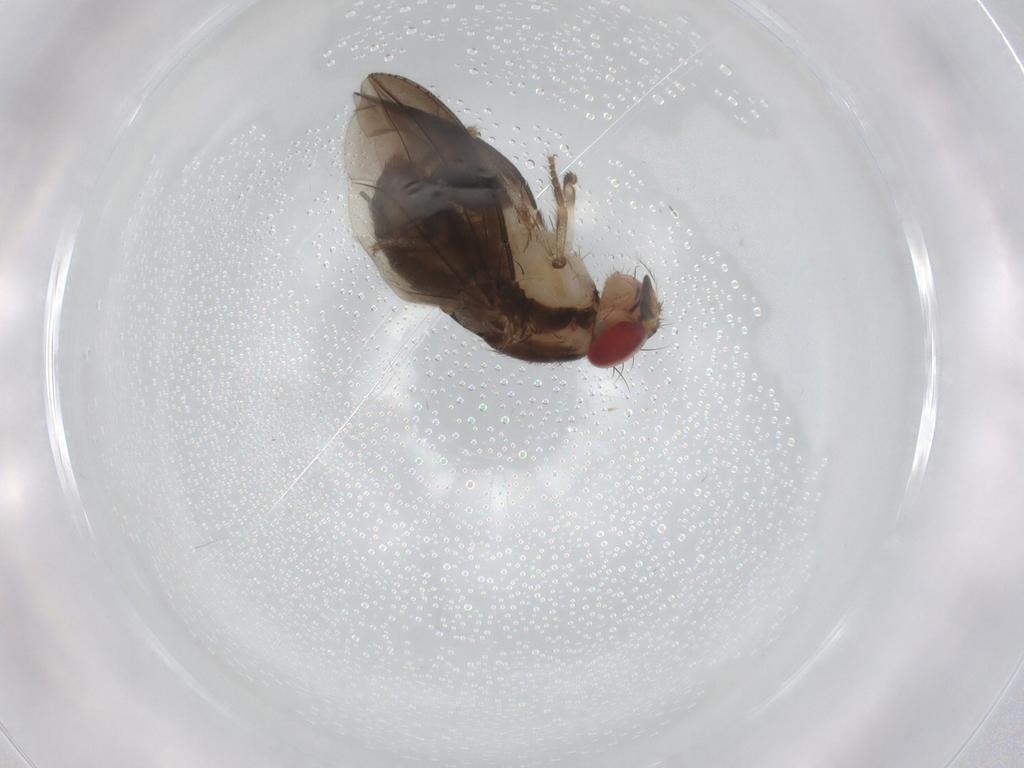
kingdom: Animalia
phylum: Arthropoda
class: Insecta
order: Diptera
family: Drosophilidae
